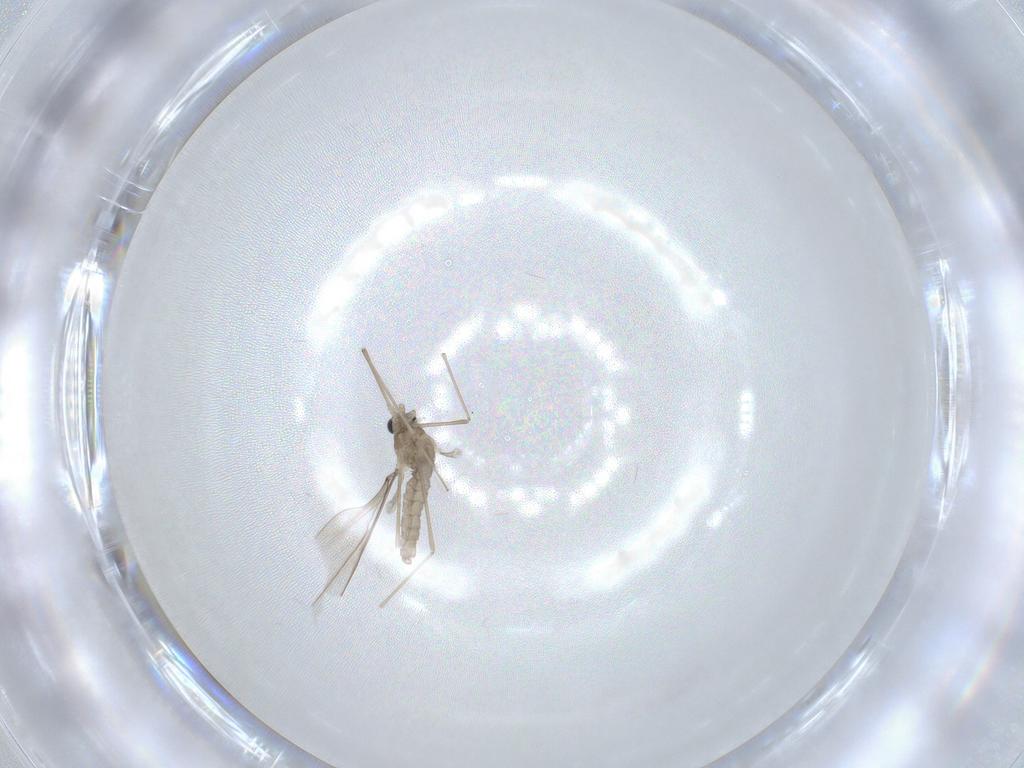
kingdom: Animalia
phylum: Arthropoda
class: Insecta
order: Diptera
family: Cecidomyiidae
